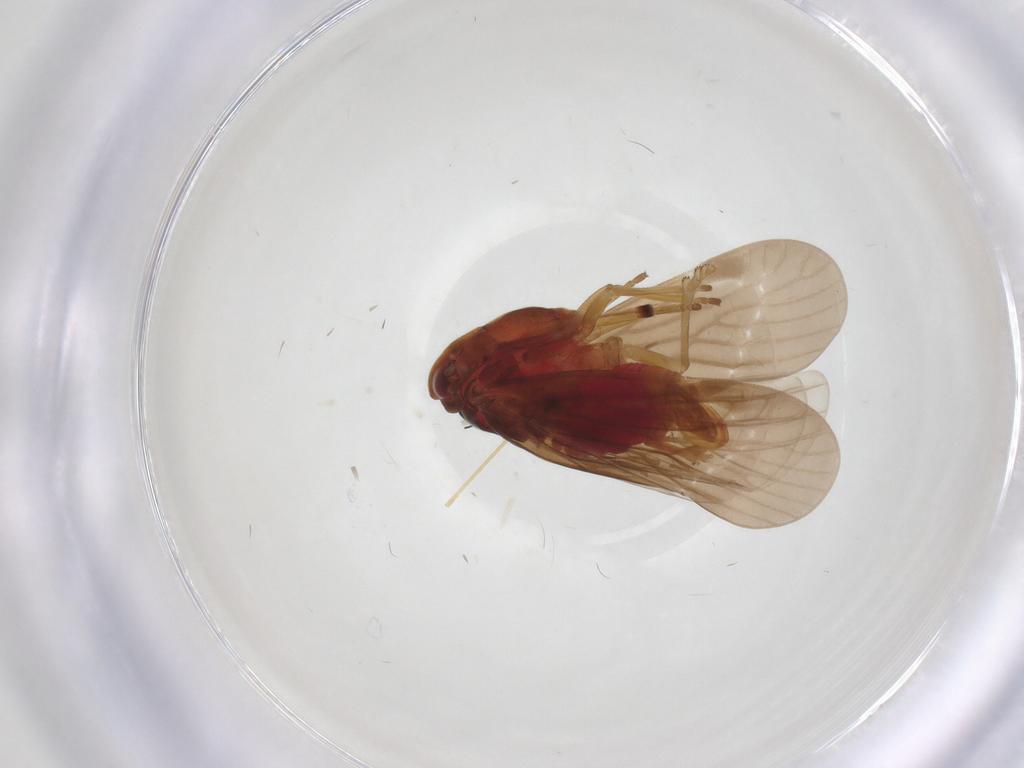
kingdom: Animalia
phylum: Arthropoda
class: Insecta
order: Hemiptera
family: Derbidae
